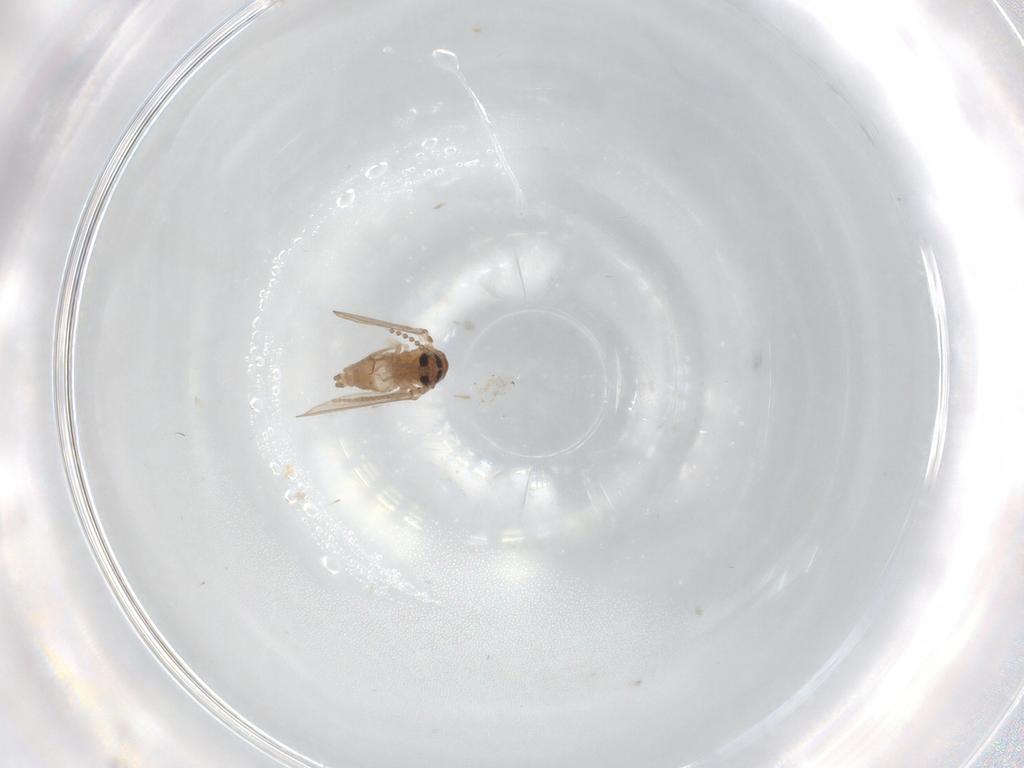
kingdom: Animalia
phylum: Arthropoda
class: Insecta
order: Diptera
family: Psychodidae
